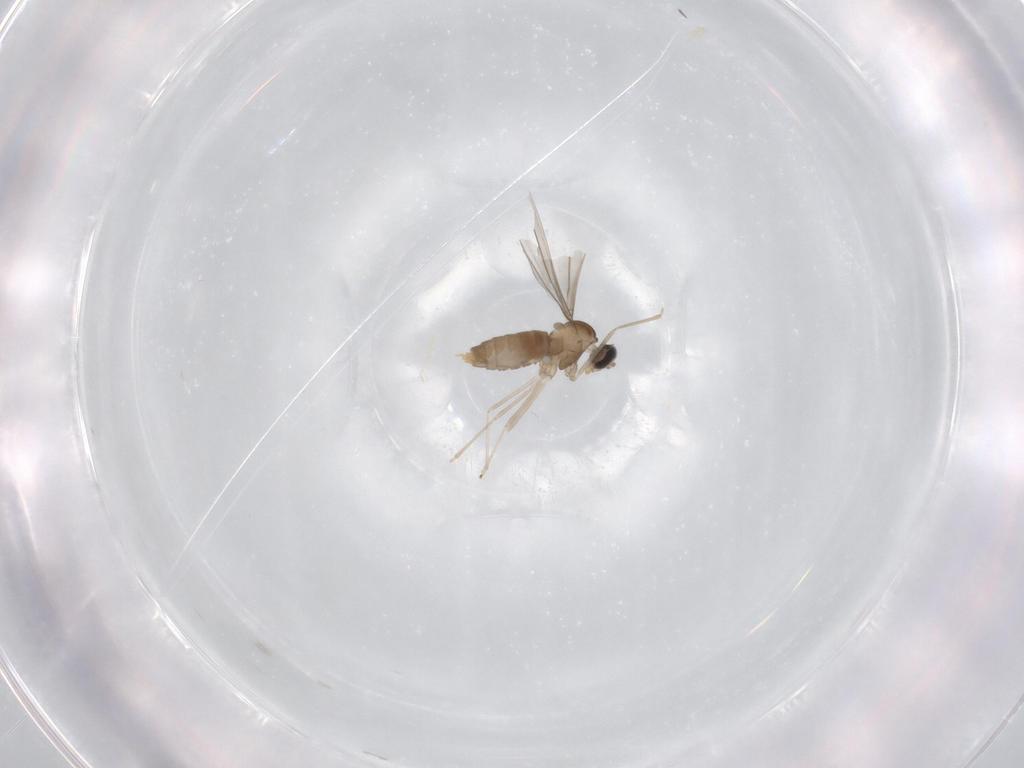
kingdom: Animalia
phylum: Arthropoda
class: Insecta
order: Diptera
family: Cecidomyiidae
